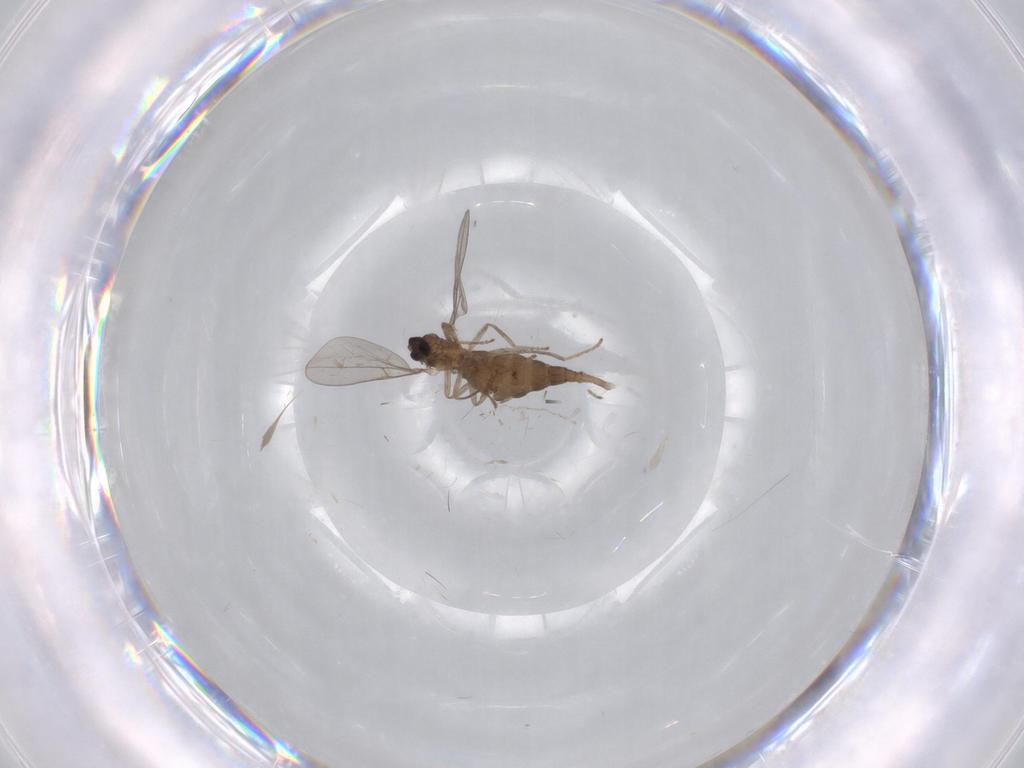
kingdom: Animalia
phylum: Arthropoda
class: Insecta
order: Diptera
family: Cecidomyiidae
